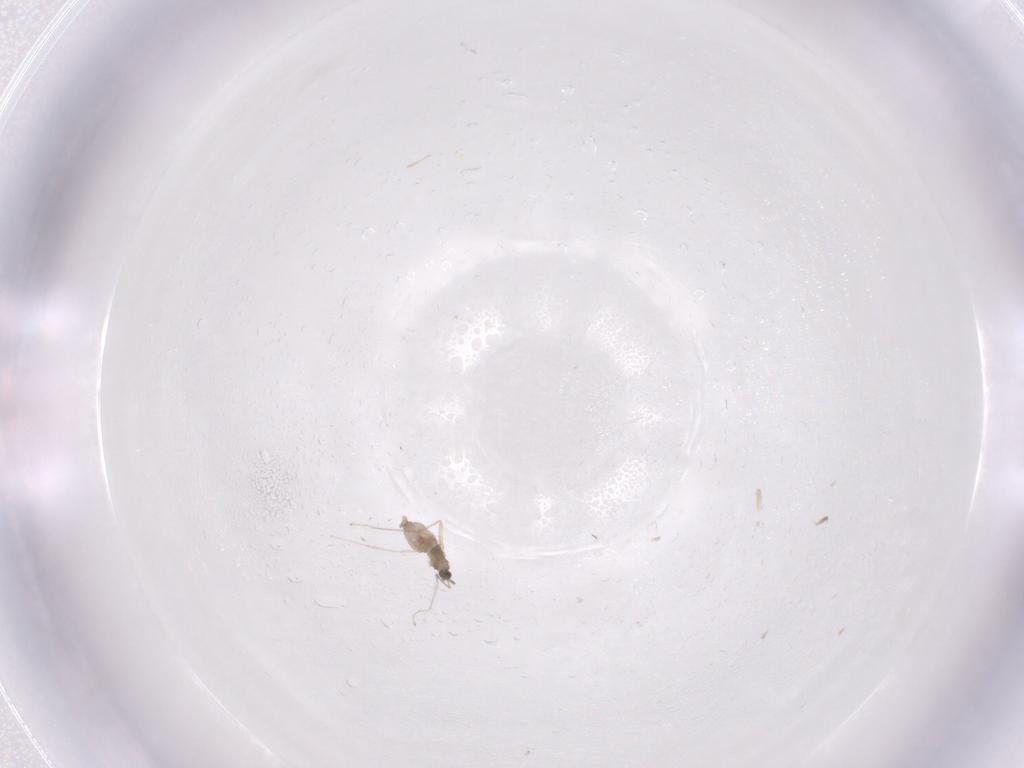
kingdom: Animalia
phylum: Arthropoda
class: Insecta
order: Diptera
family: Cecidomyiidae
